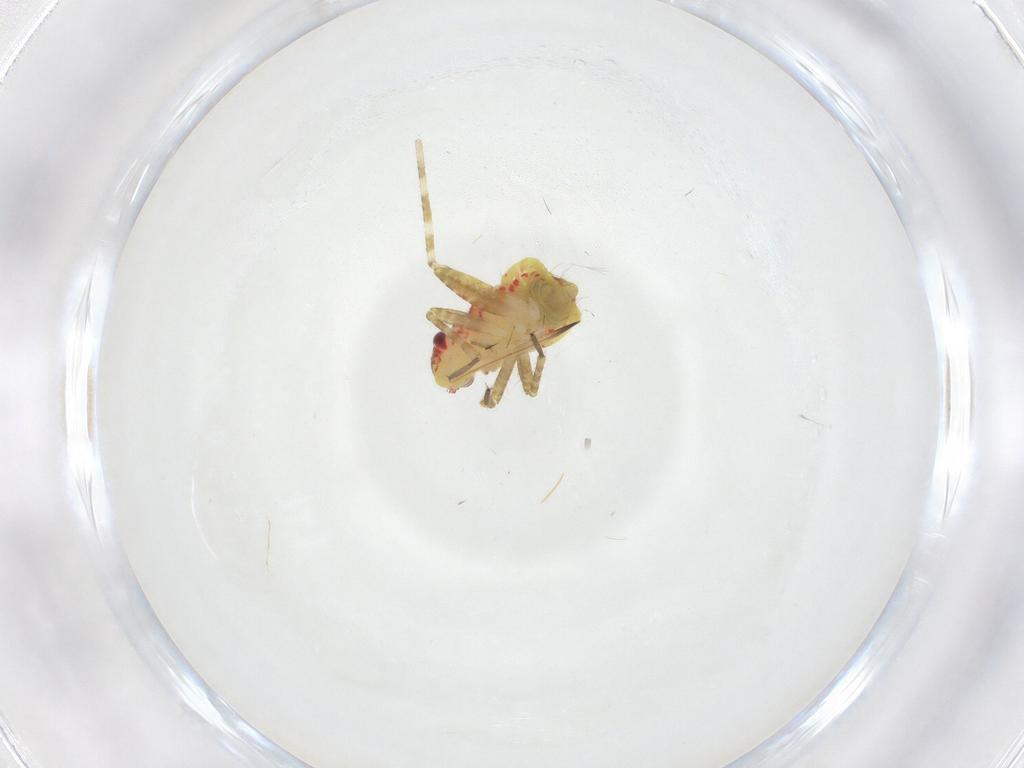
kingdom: Animalia
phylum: Arthropoda
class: Insecta
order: Hemiptera
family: Miridae
